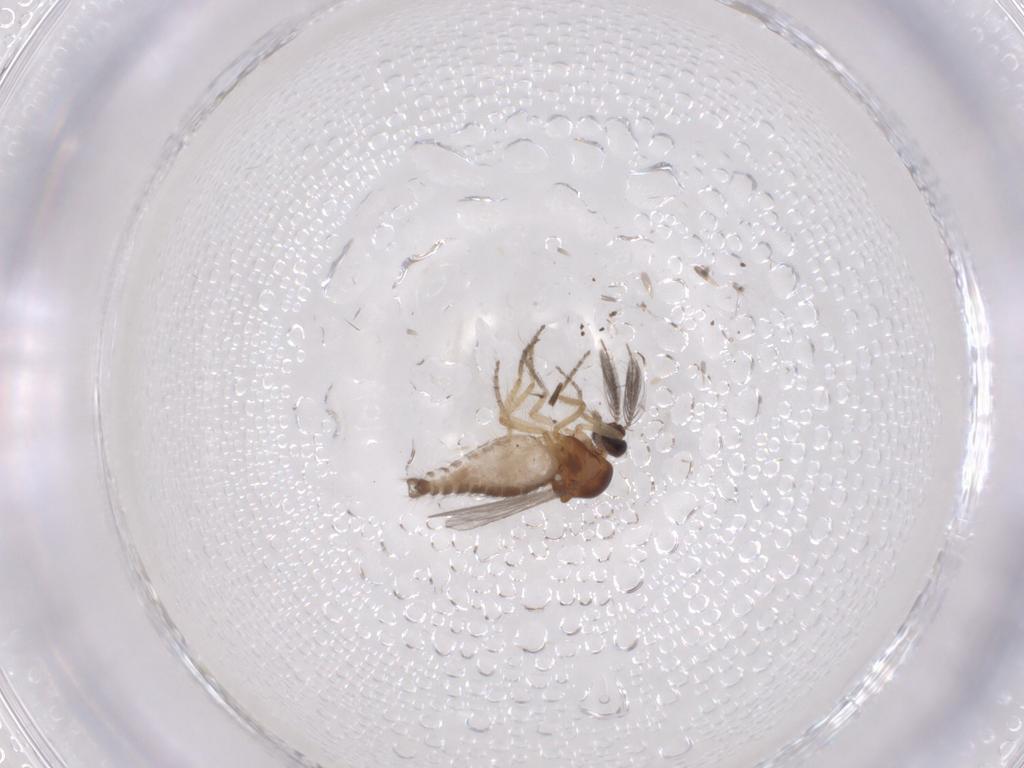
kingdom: Animalia
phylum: Arthropoda
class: Insecta
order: Diptera
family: Ceratopogonidae
